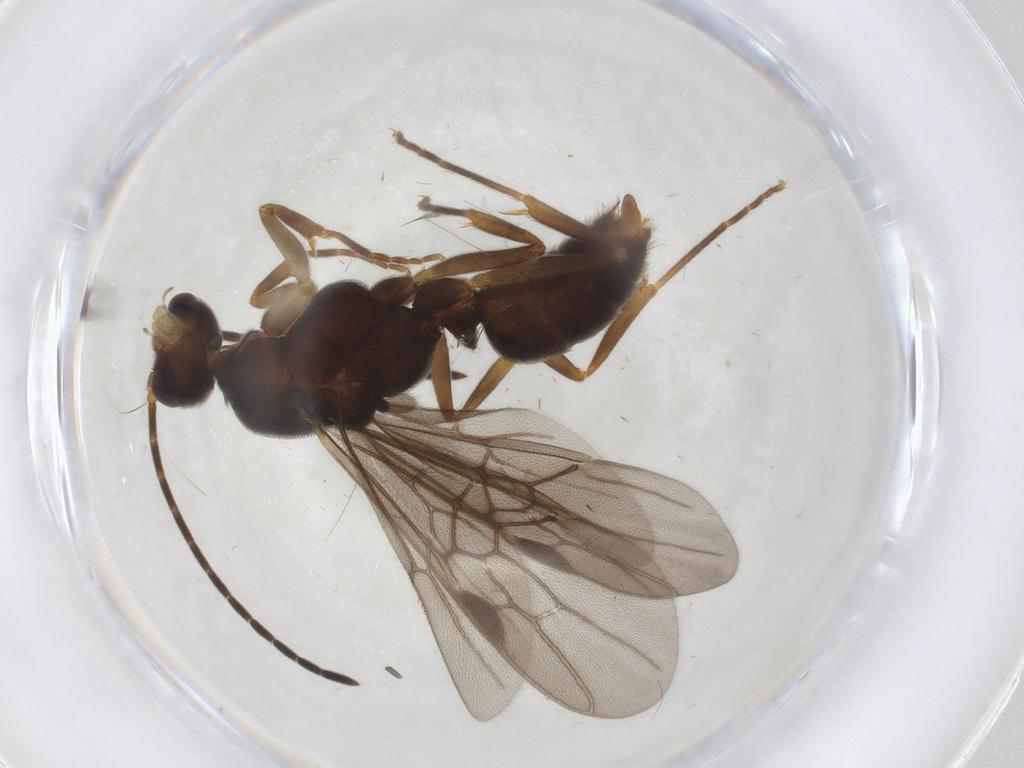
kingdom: Animalia
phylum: Arthropoda
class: Insecta
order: Hymenoptera
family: Formicidae
